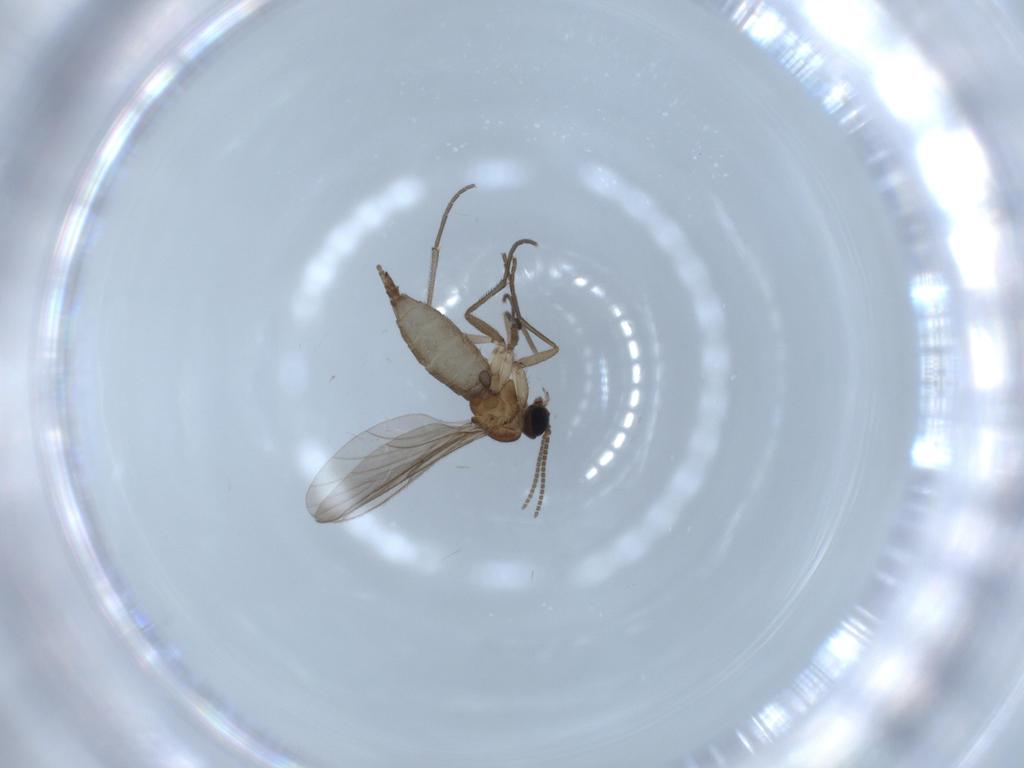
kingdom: Animalia
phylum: Arthropoda
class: Insecta
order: Diptera
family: Sciaridae
